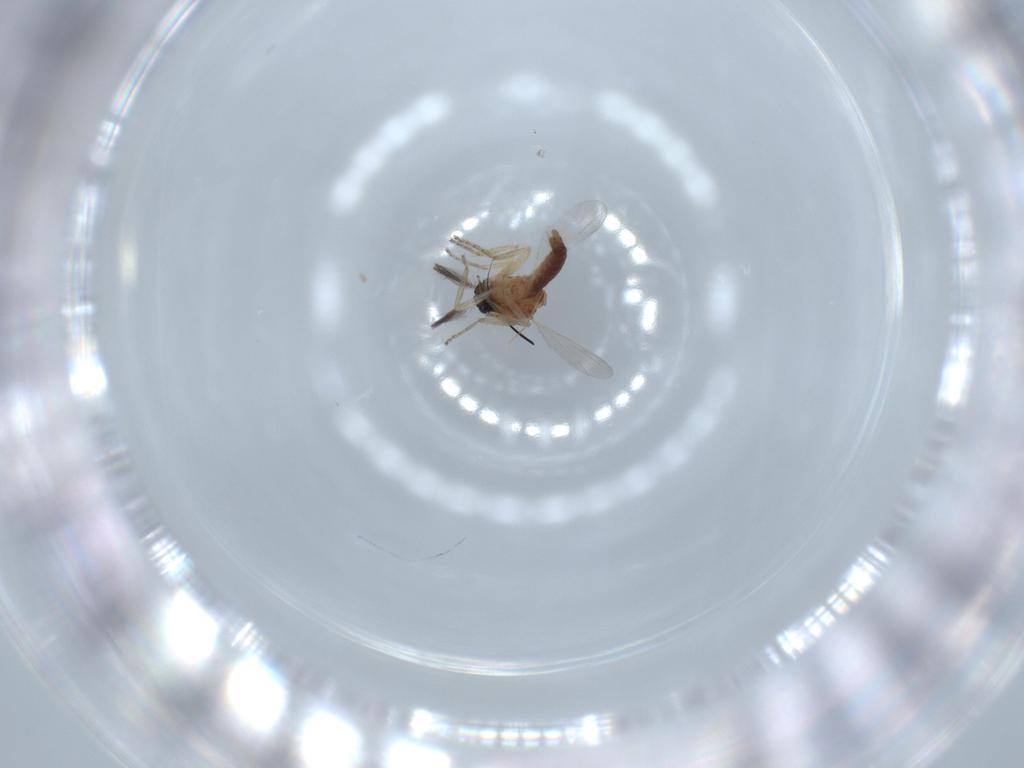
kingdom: Animalia
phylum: Arthropoda
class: Insecta
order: Diptera
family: Ceratopogonidae
